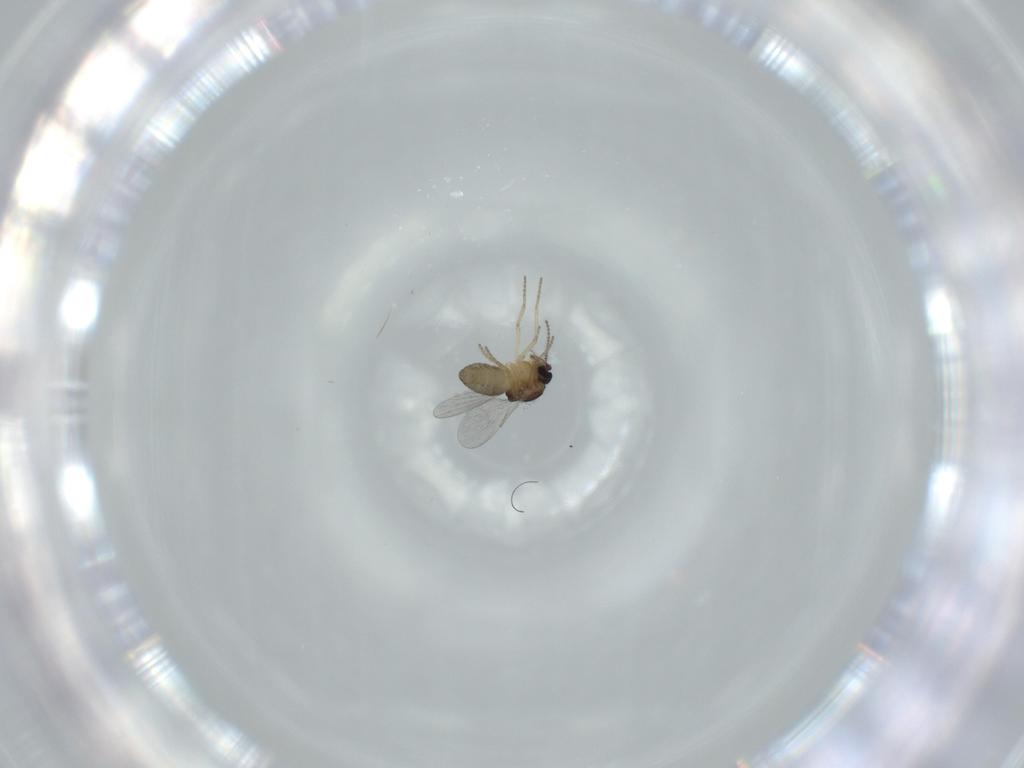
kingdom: Animalia
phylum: Arthropoda
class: Insecta
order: Diptera
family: Ceratopogonidae
